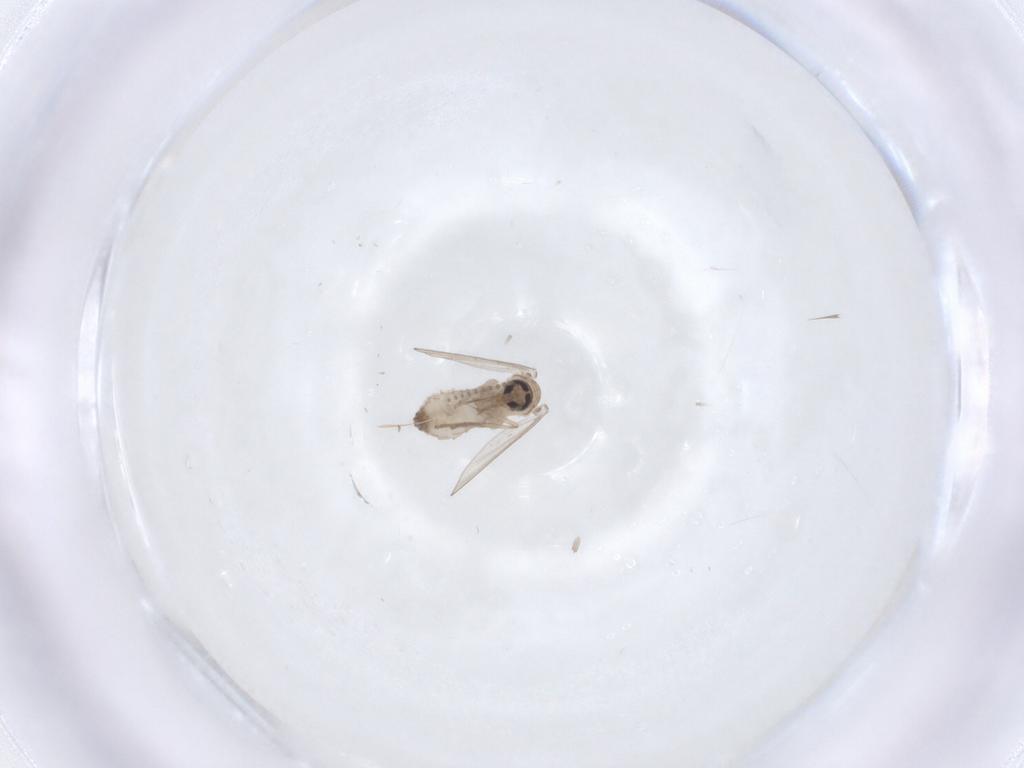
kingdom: Animalia
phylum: Arthropoda
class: Insecta
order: Diptera
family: Psychodidae
